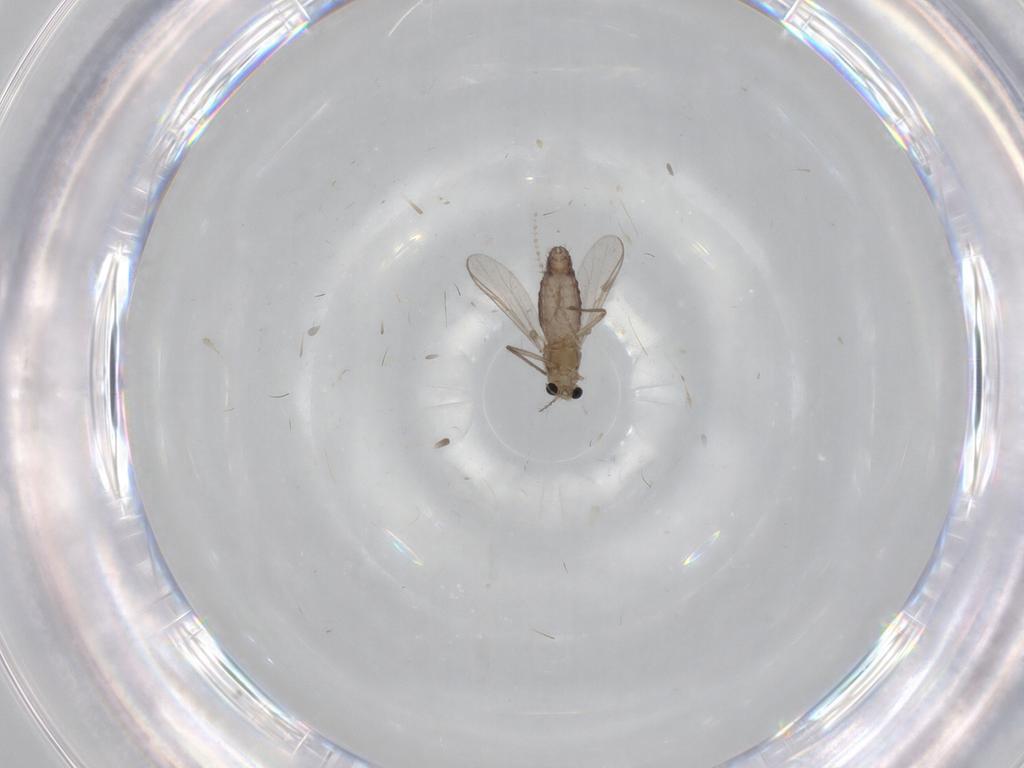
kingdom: Animalia
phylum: Arthropoda
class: Insecta
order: Diptera
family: Chironomidae
